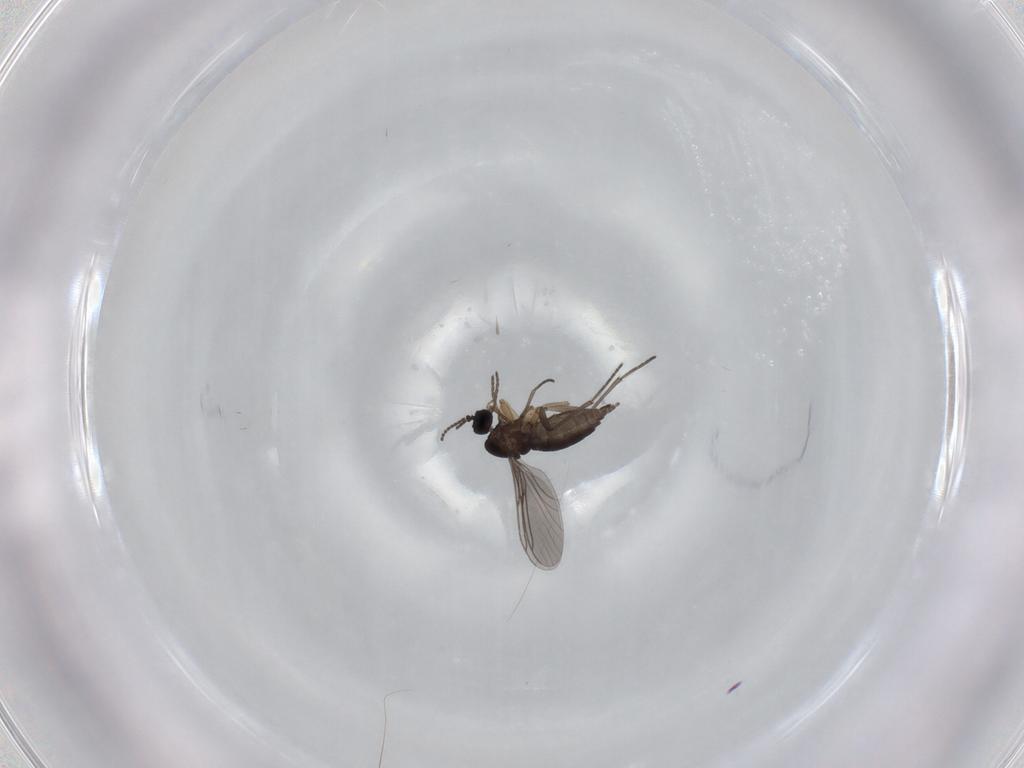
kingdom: Animalia
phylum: Arthropoda
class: Insecta
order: Diptera
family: Sciaridae
